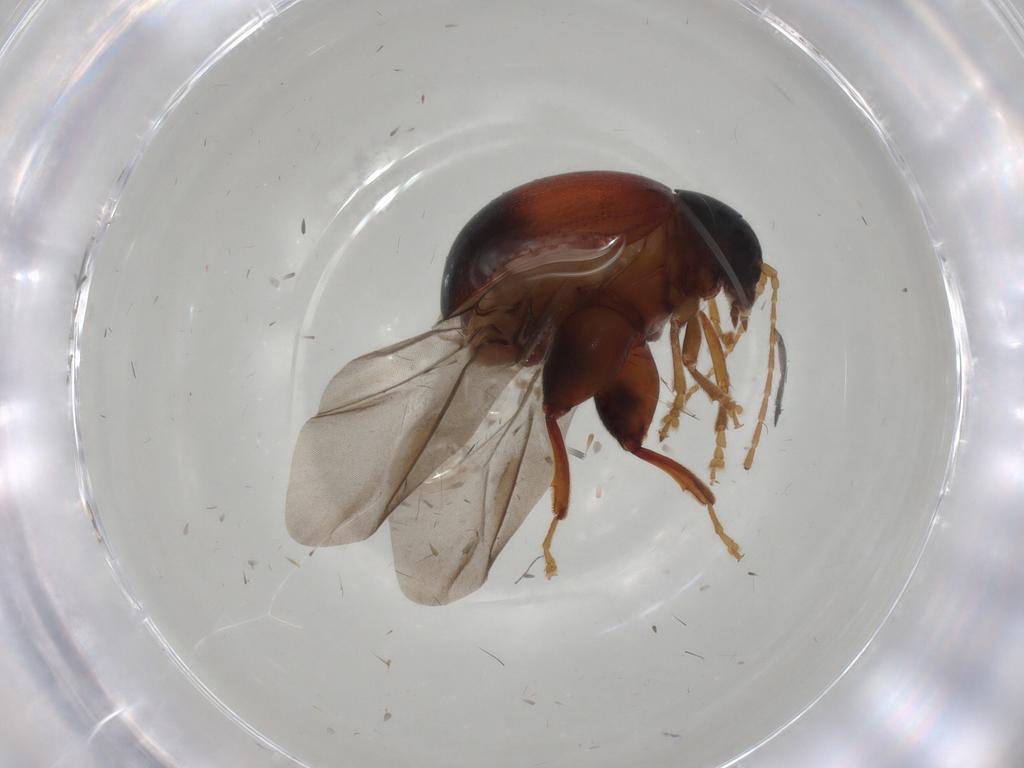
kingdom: Animalia
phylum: Arthropoda
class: Insecta
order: Coleoptera
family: Chrysomelidae
